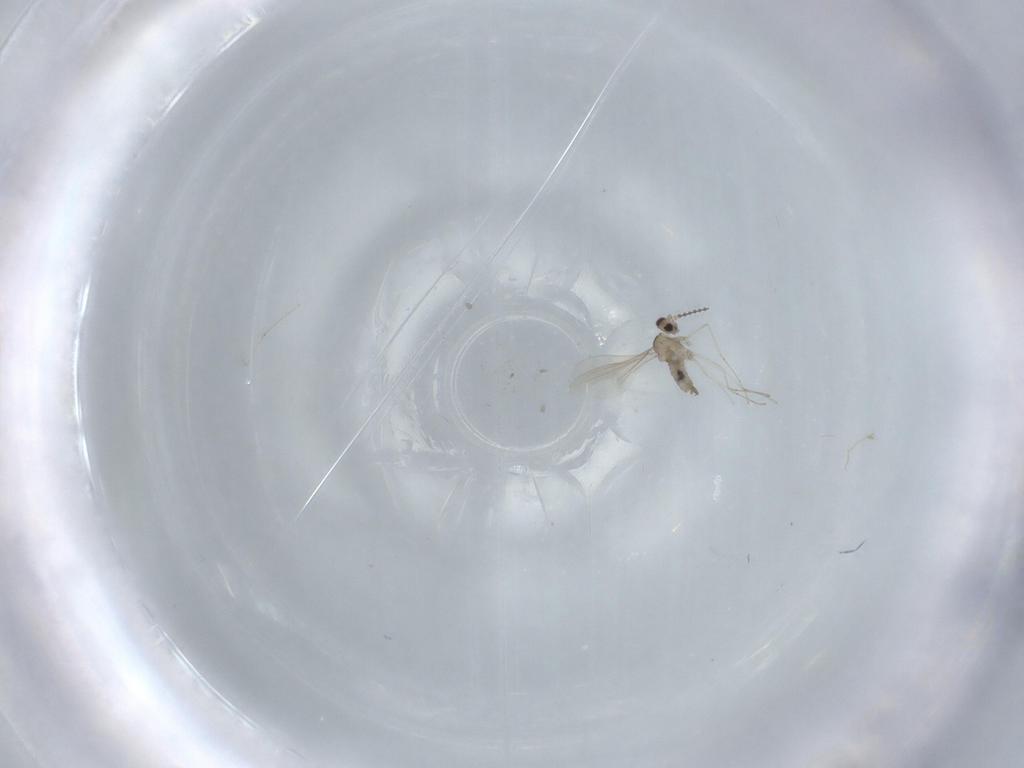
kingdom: Animalia
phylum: Arthropoda
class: Insecta
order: Diptera
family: Cecidomyiidae
